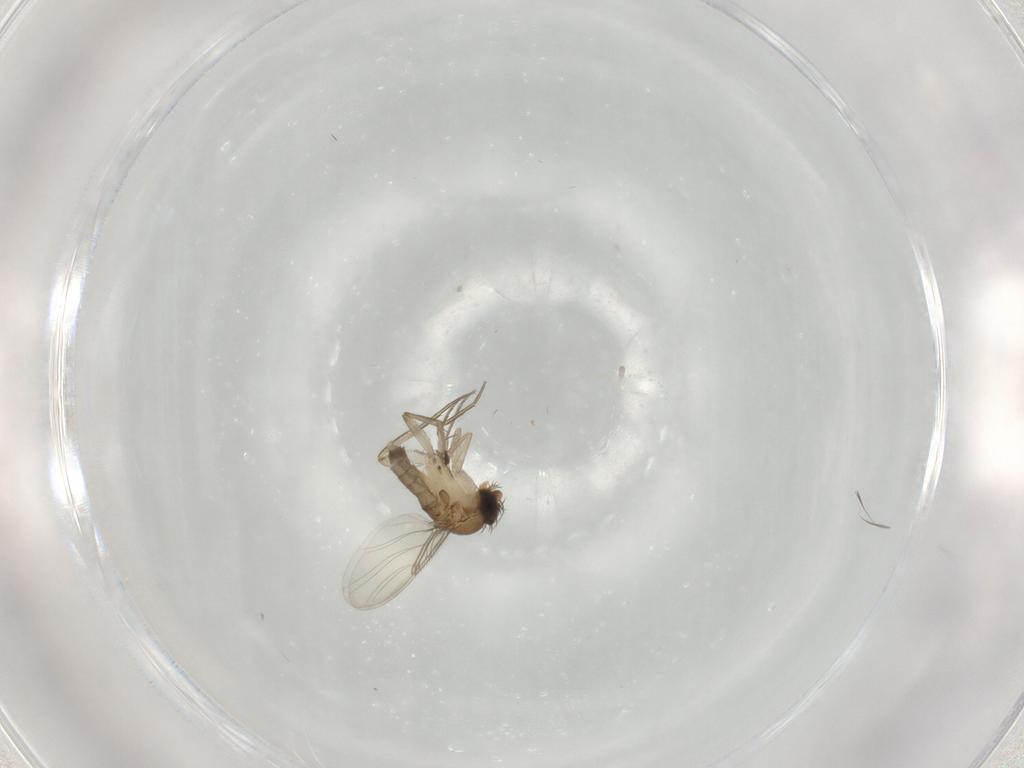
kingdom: Animalia
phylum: Arthropoda
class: Insecta
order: Diptera
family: Phoridae
